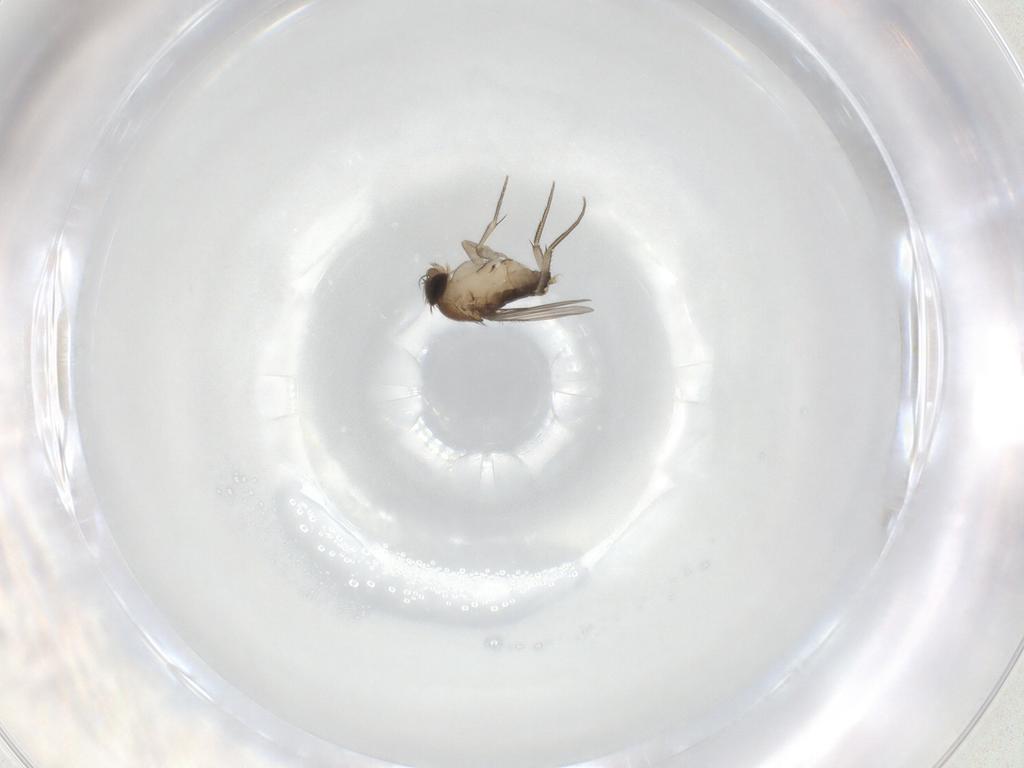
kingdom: Animalia
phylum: Arthropoda
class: Insecta
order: Diptera
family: Phoridae
